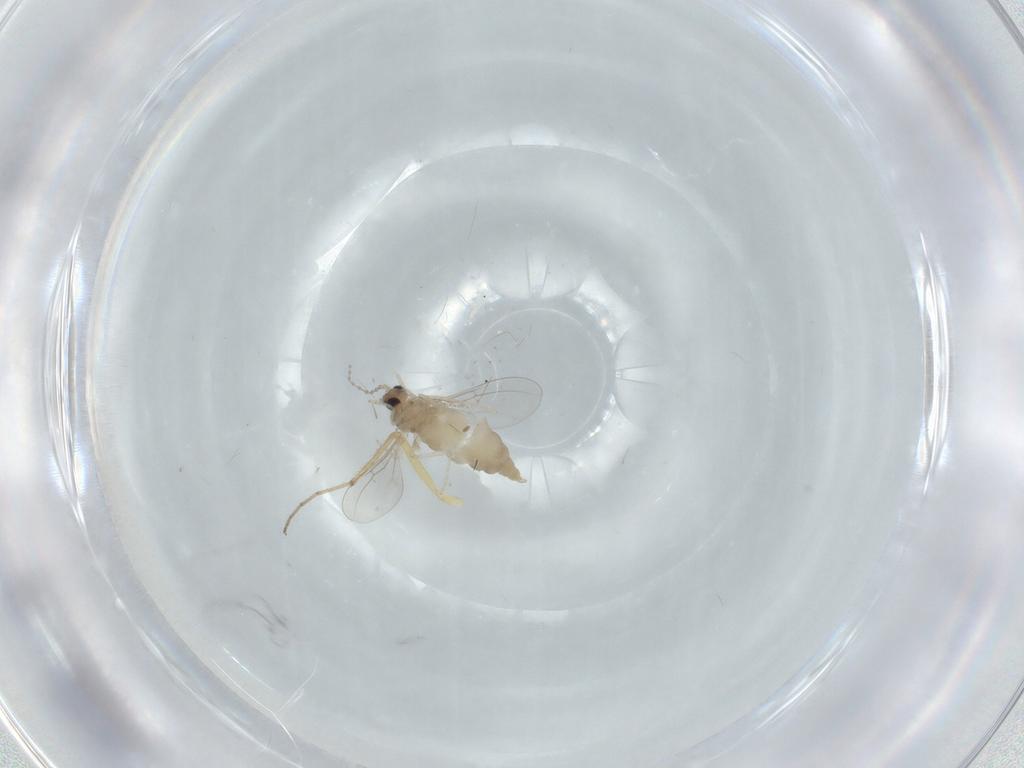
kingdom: Animalia
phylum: Arthropoda
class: Insecta
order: Diptera
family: Cecidomyiidae
